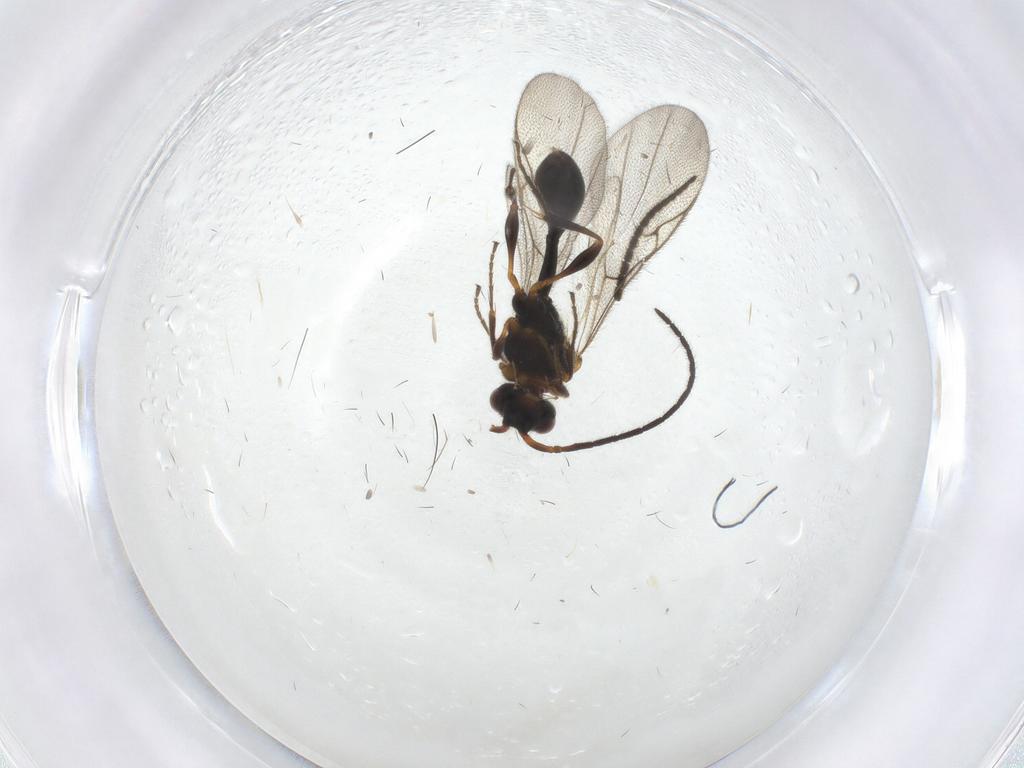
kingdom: Animalia
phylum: Arthropoda
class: Insecta
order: Hymenoptera
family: Diapriidae
